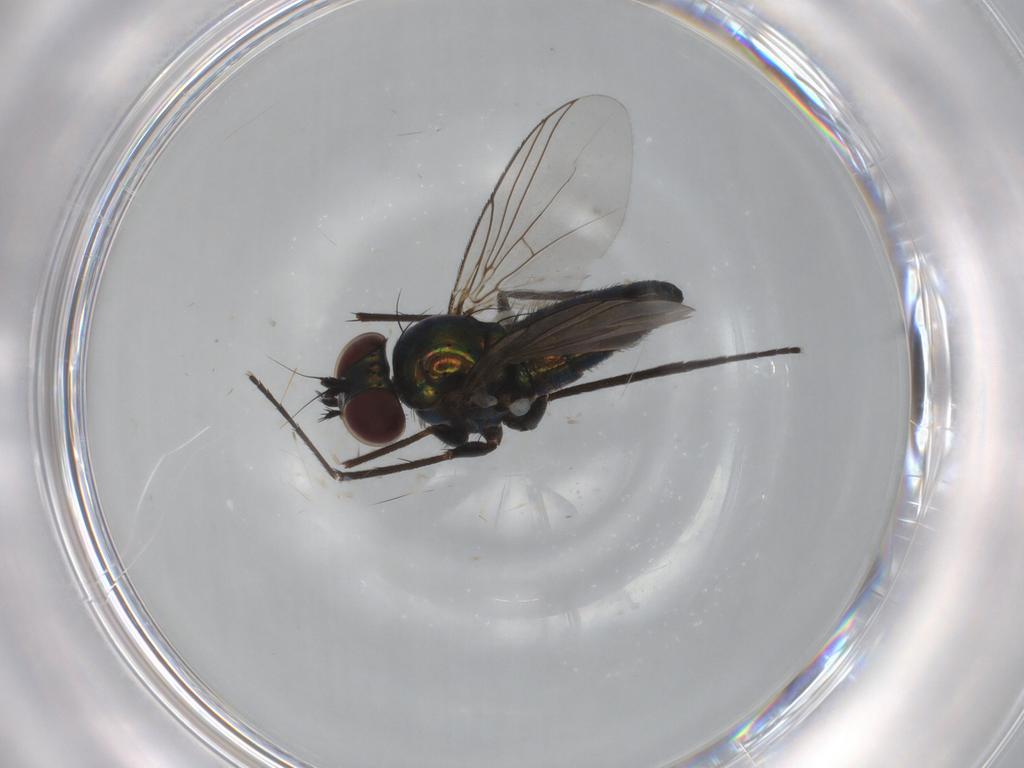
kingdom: Animalia
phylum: Arthropoda
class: Insecta
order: Diptera
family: Dolichopodidae
